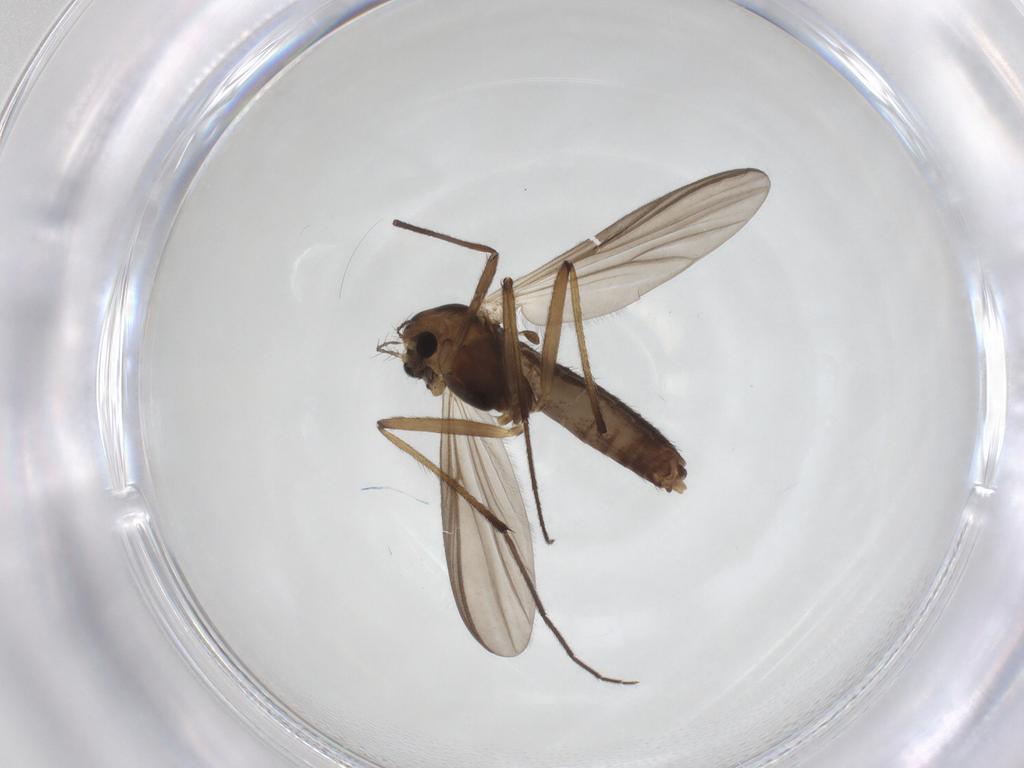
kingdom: Animalia
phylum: Arthropoda
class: Insecta
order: Diptera
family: Chironomidae
